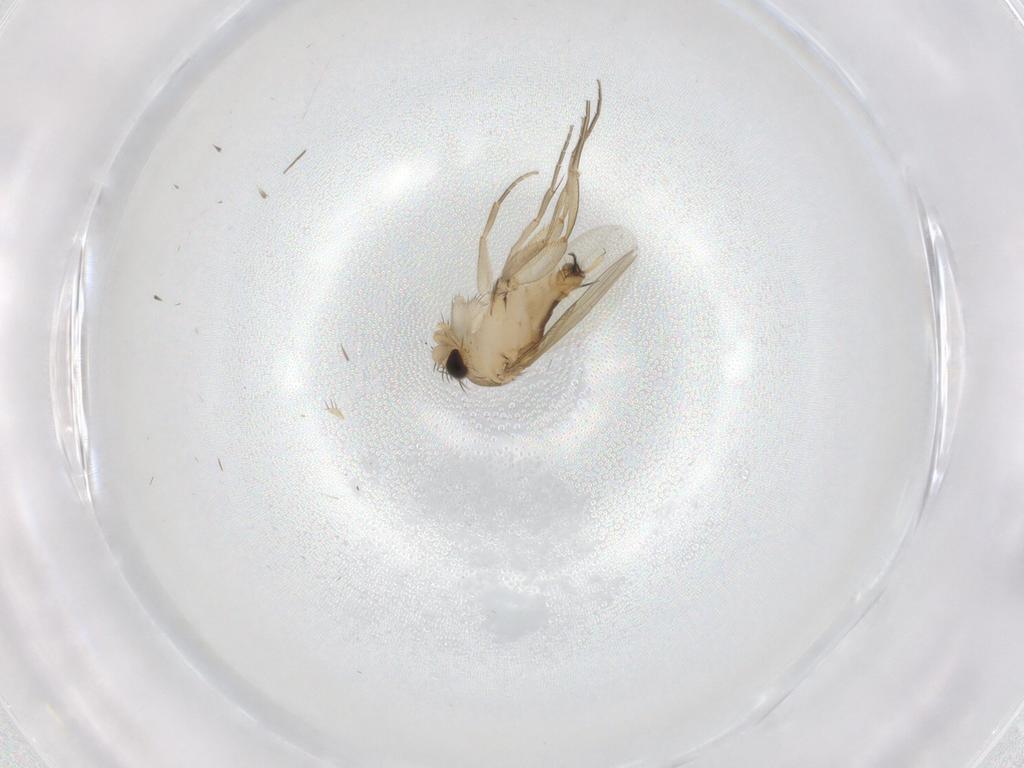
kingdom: Animalia
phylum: Arthropoda
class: Insecta
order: Diptera
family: Phoridae
